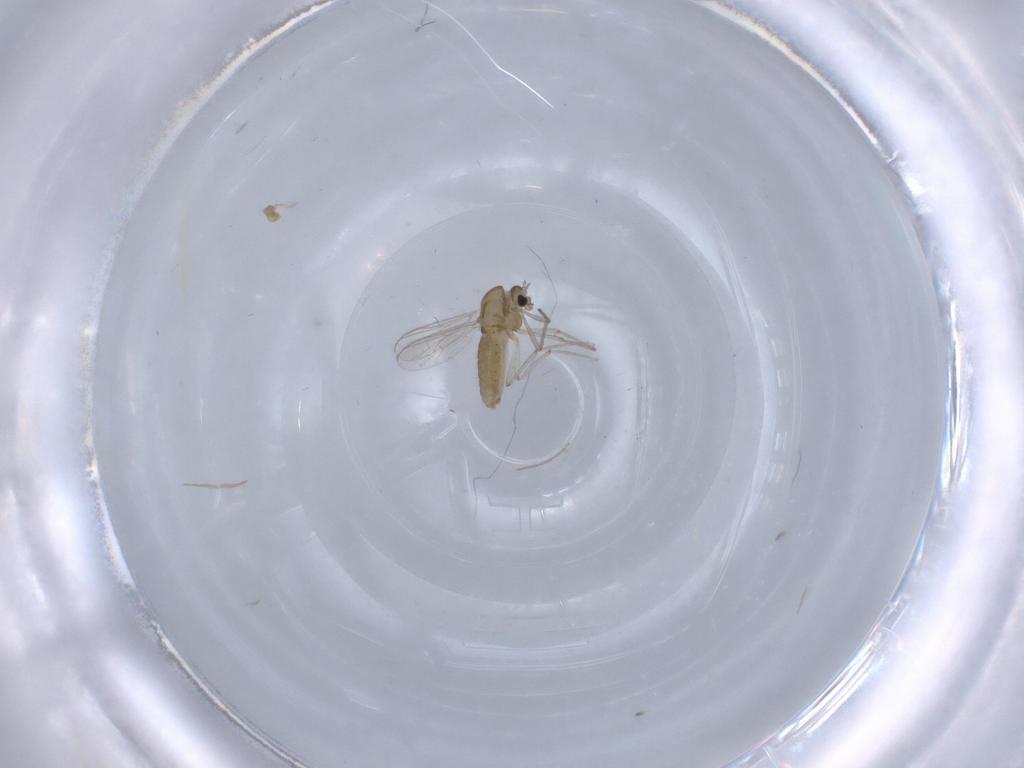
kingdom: Animalia
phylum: Arthropoda
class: Insecta
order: Diptera
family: Chironomidae
